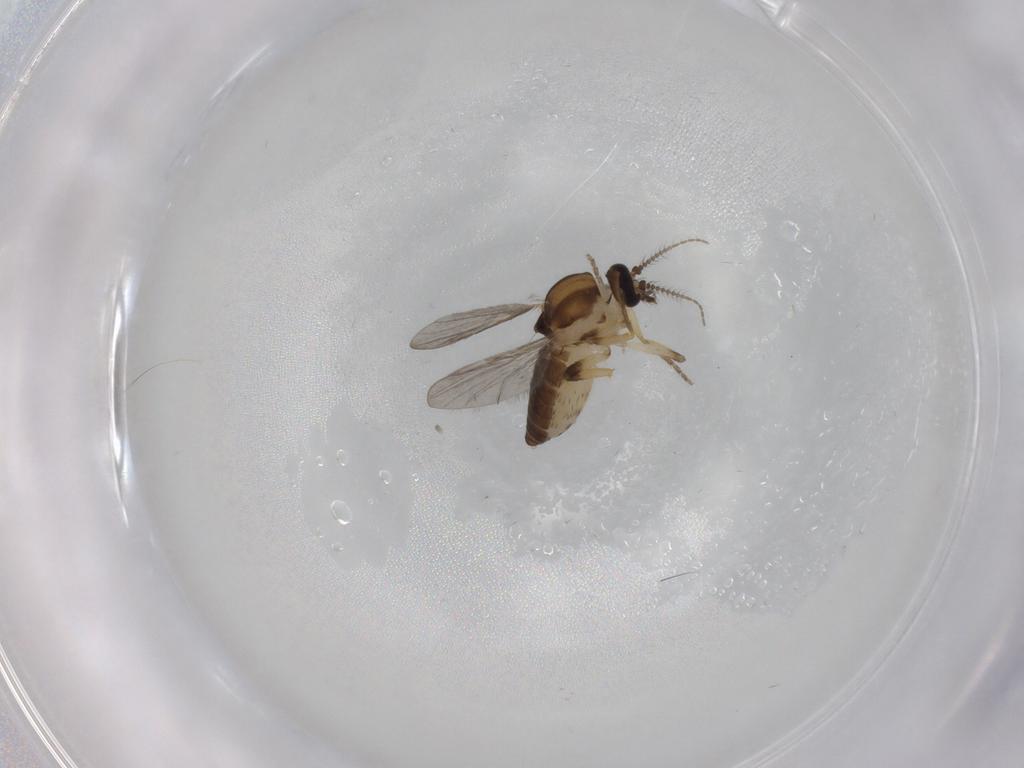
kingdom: Animalia
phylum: Arthropoda
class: Insecta
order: Diptera
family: Ceratopogonidae
